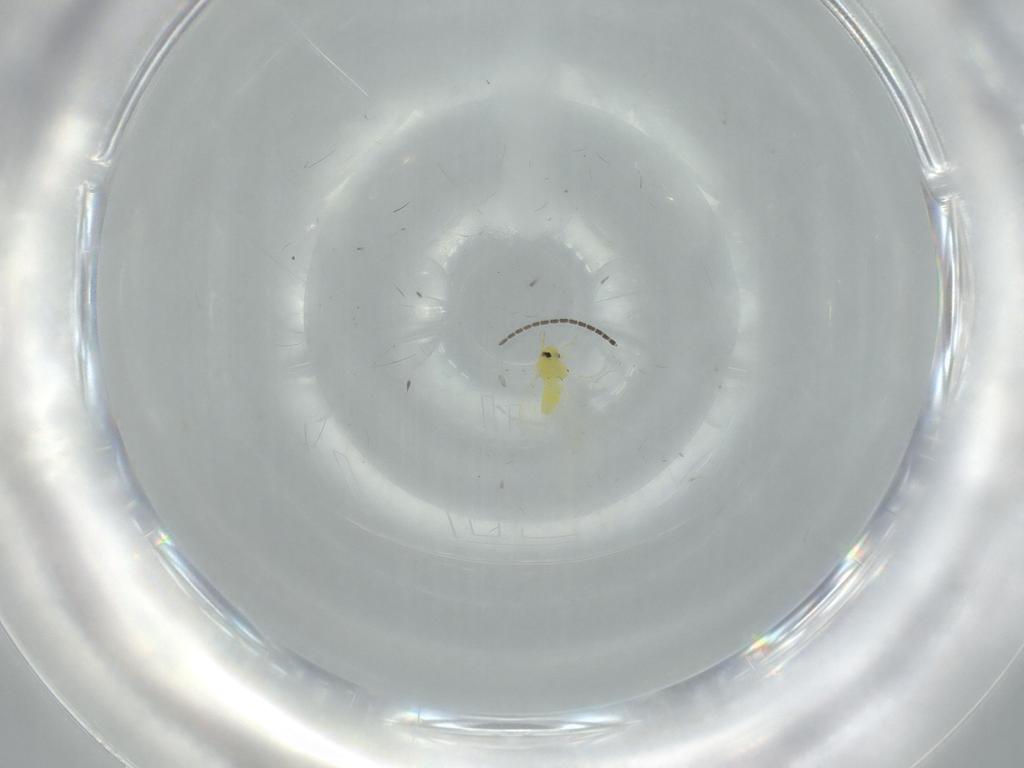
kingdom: Animalia
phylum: Arthropoda
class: Insecta
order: Hemiptera
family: Aleyrodidae
